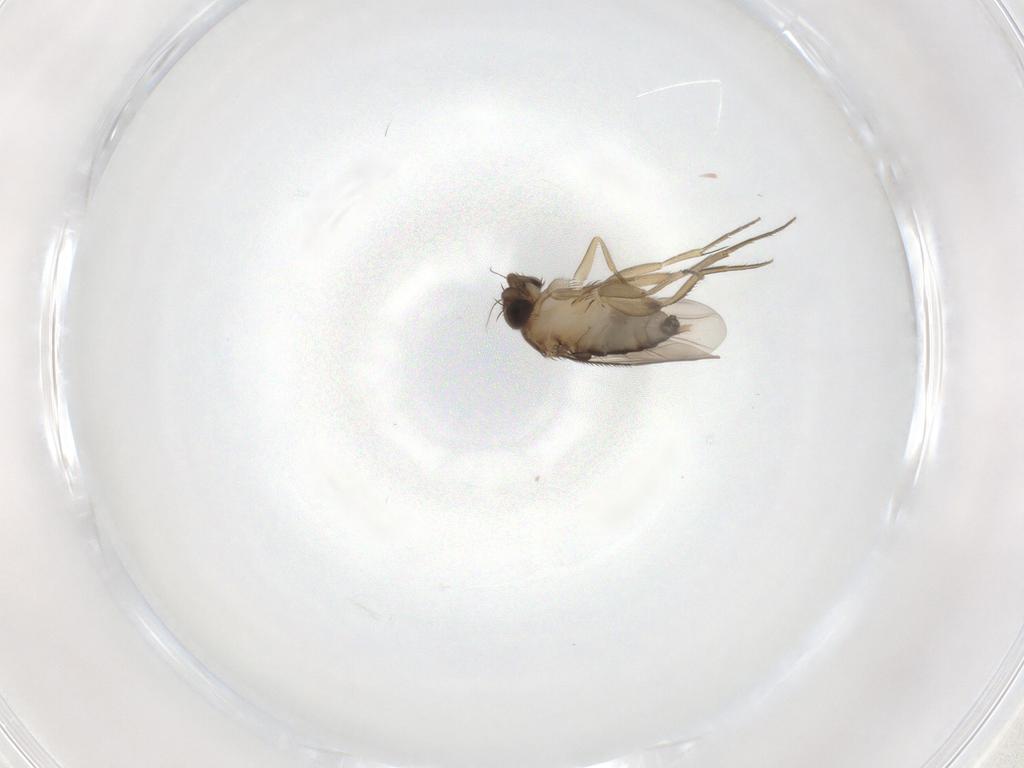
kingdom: Animalia
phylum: Arthropoda
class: Insecta
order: Diptera
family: Phoridae
